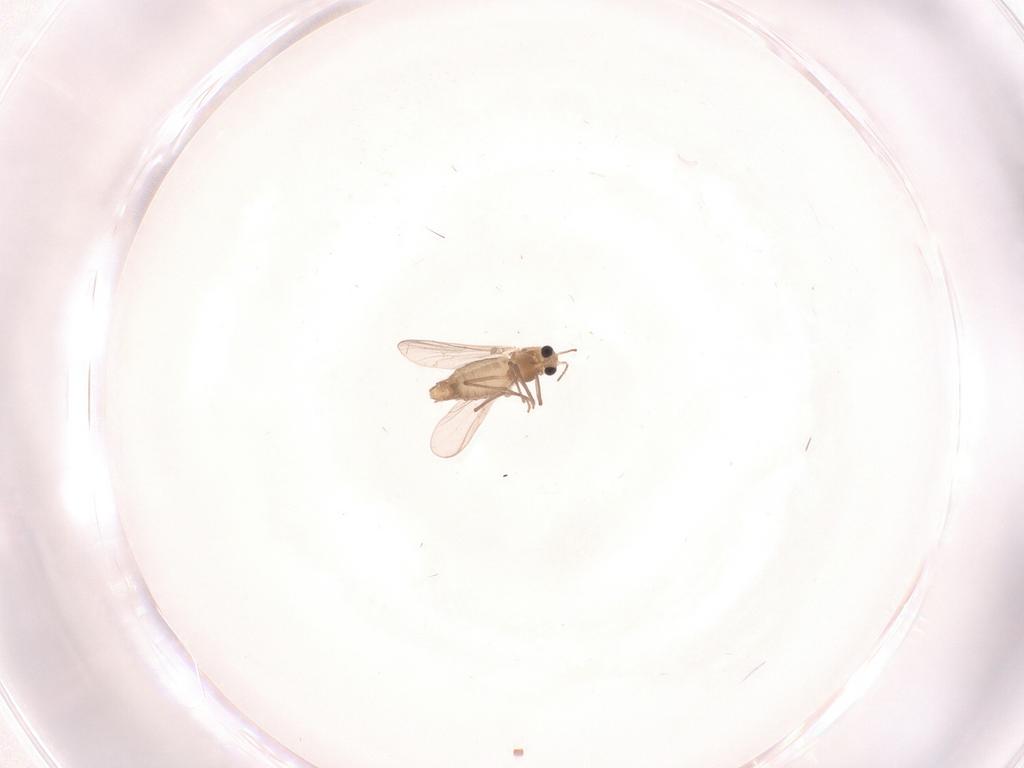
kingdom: Animalia
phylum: Arthropoda
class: Insecta
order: Diptera
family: Chironomidae
